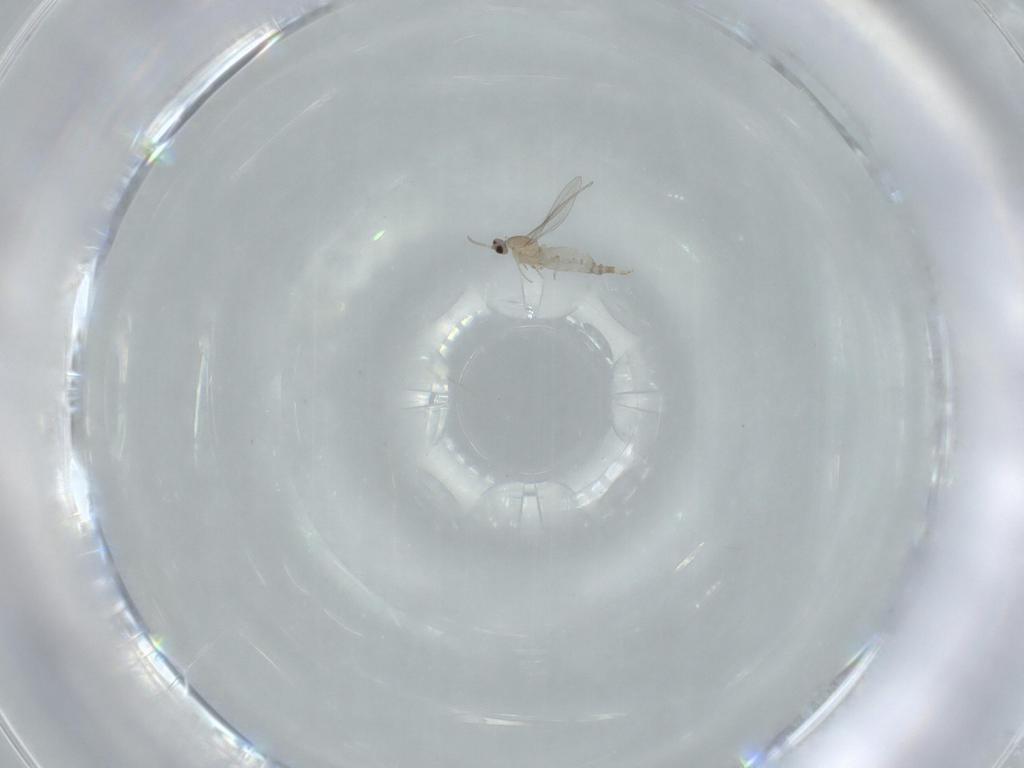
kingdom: Animalia
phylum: Arthropoda
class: Insecta
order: Diptera
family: Cecidomyiidae
